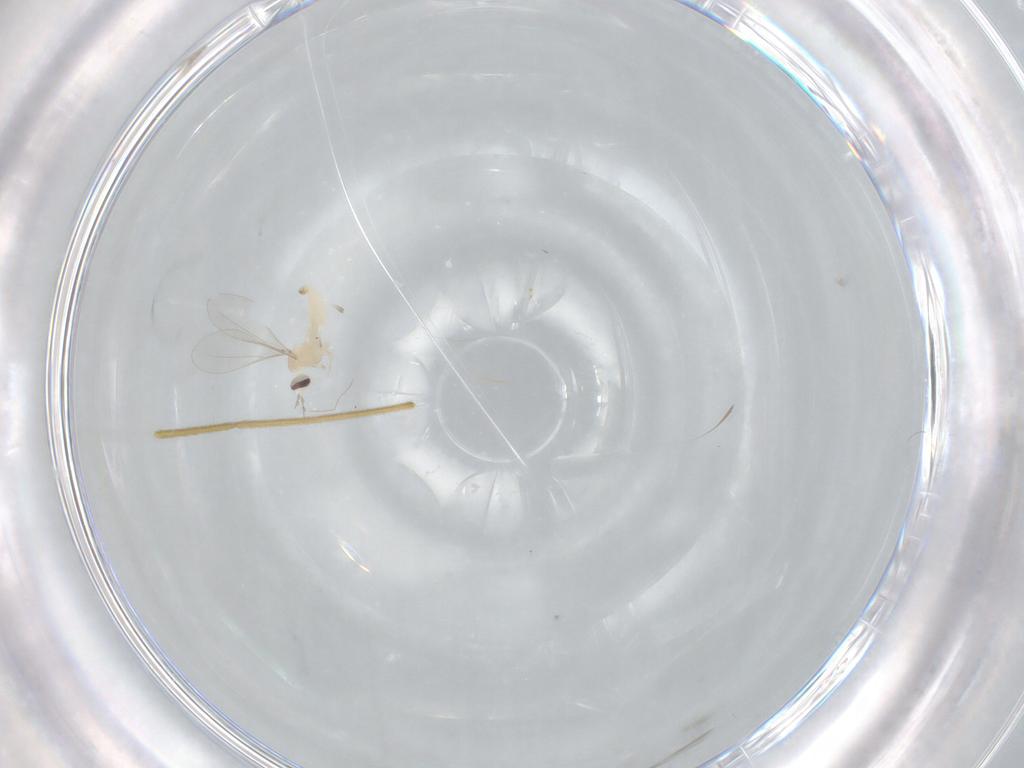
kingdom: Animalia
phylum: Arthropoda
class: Insecta
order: Diptera
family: Cecidomyiidae
